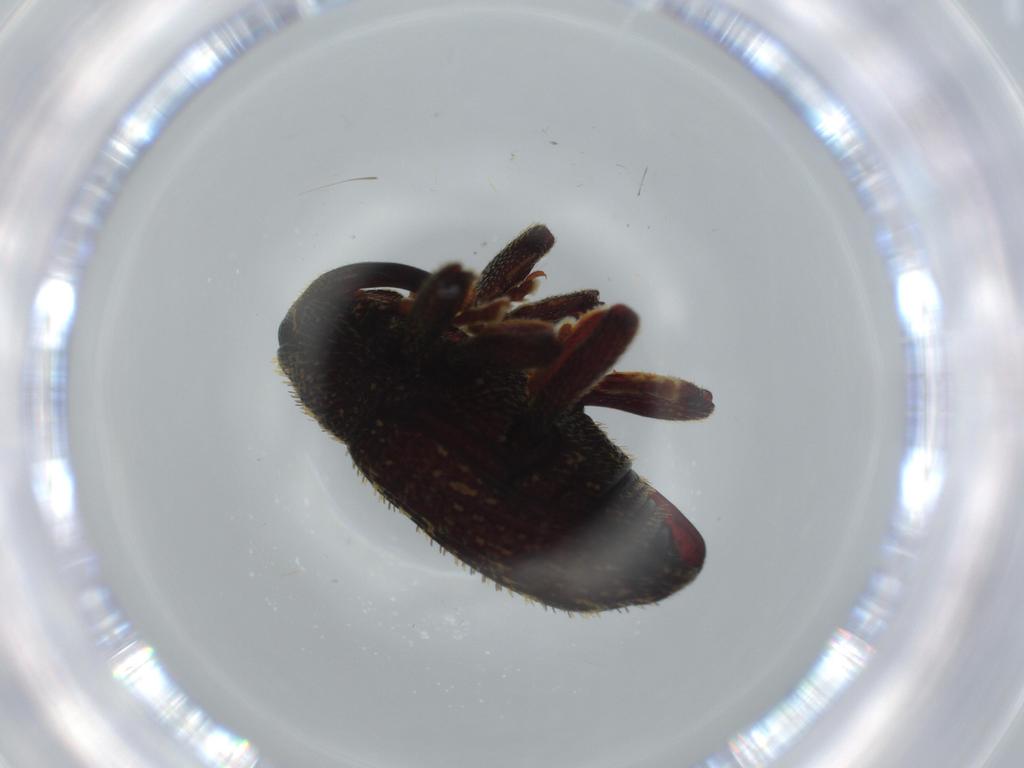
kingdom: Animalia
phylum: Arthropoda
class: Insecta
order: Coleoptera
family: Chrysomelidae
